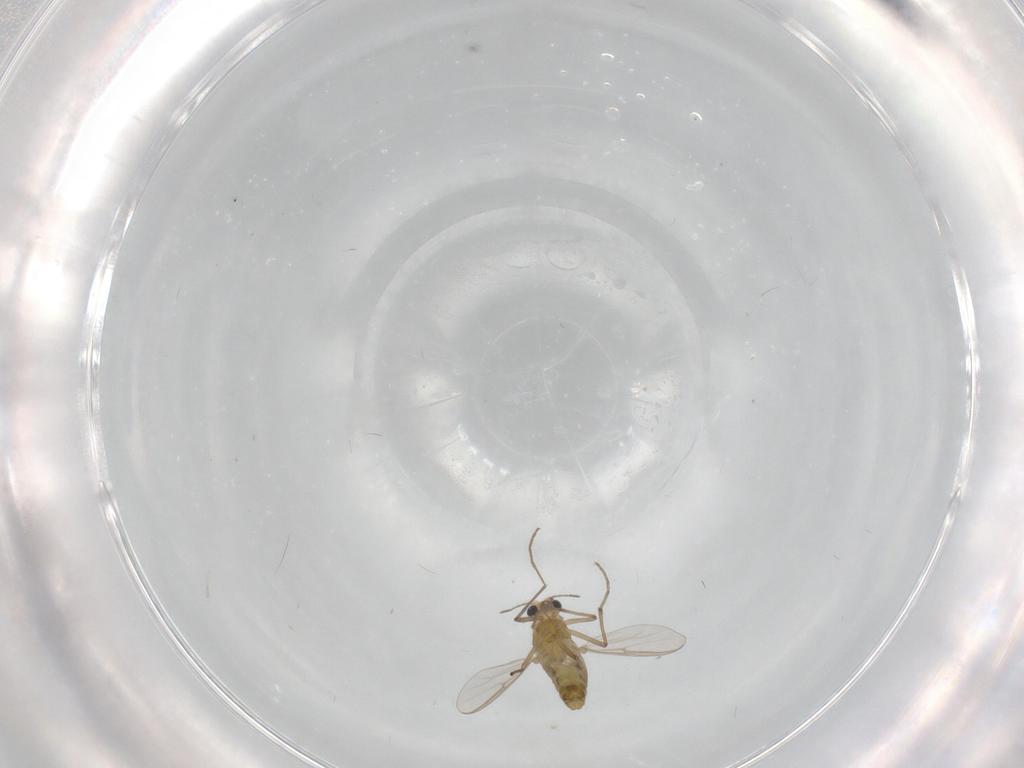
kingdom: Animalia
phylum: Arthropoda
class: Insecta
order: Diptera
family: Chironomidae
